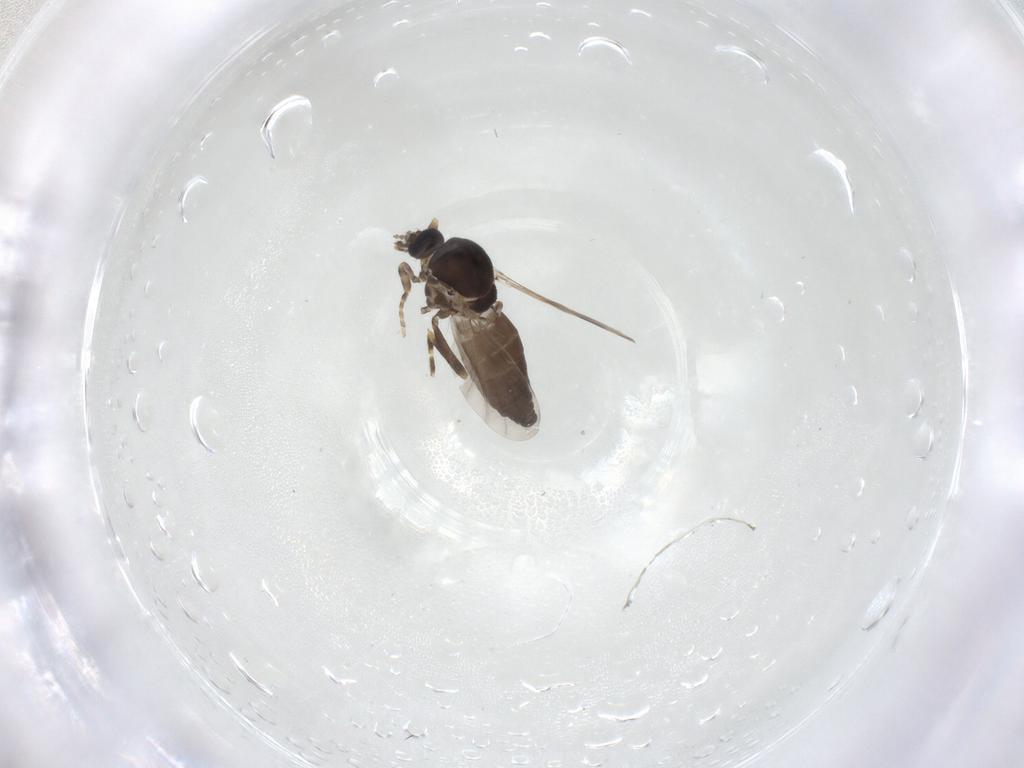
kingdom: Animalia
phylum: Arthropoda
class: Insecta
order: Diptera
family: Ceratopogonidae
